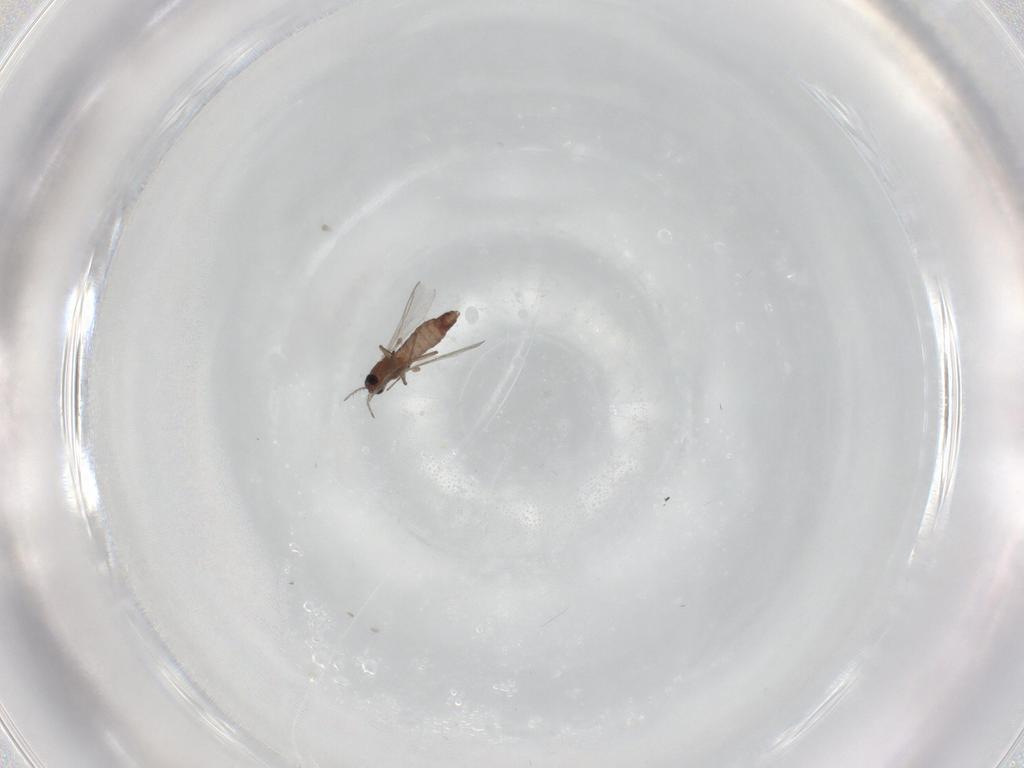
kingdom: Animalia
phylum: Arthropoda
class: Insecta
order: Diptera
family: Chironomidae
